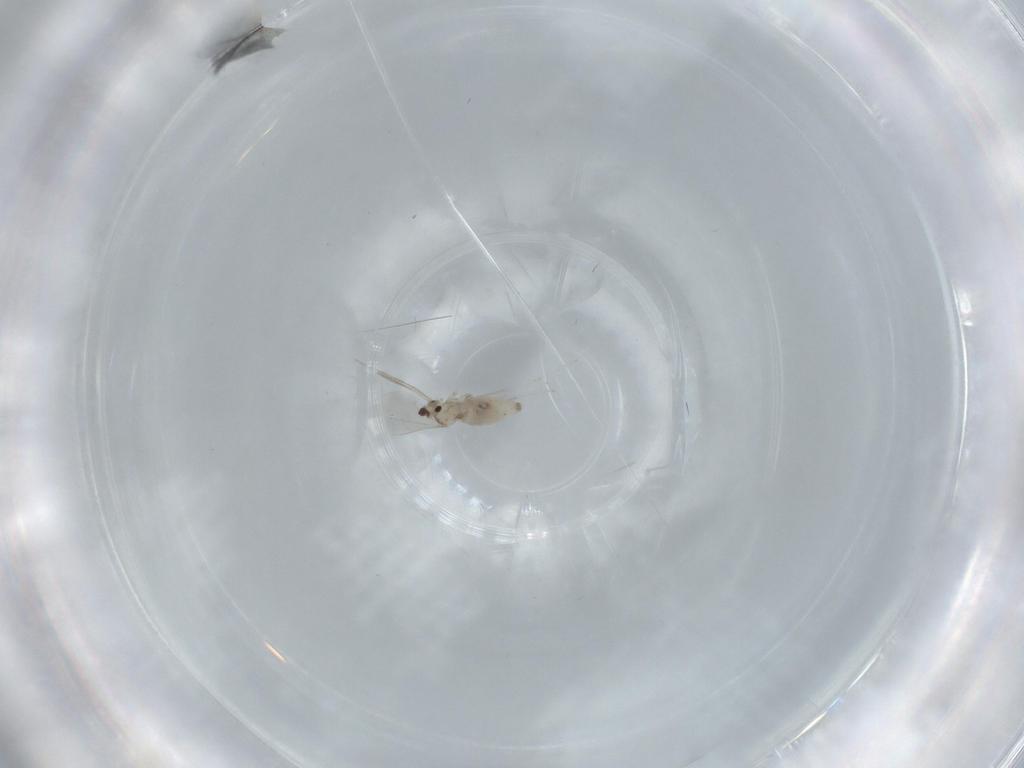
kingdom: Animalia
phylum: Arthropoda
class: Insecta
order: Diptera
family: Cecidomyiidae
